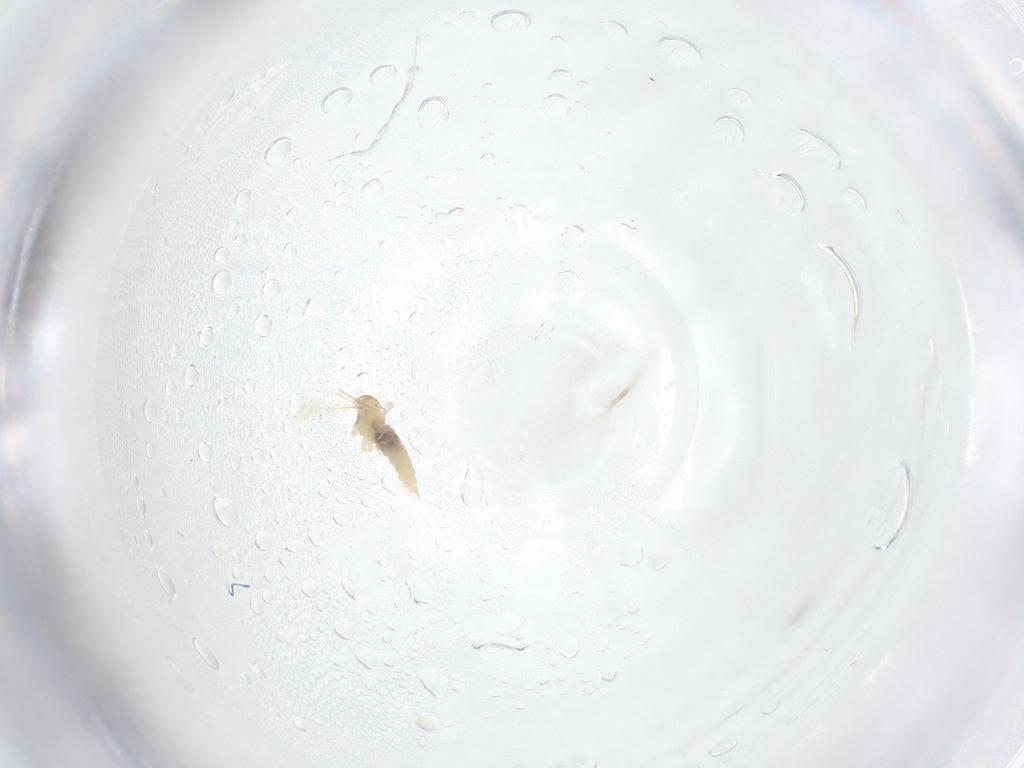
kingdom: Animalia
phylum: Arthropoda
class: Insecta
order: Diptera
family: Cecidomyiidae
